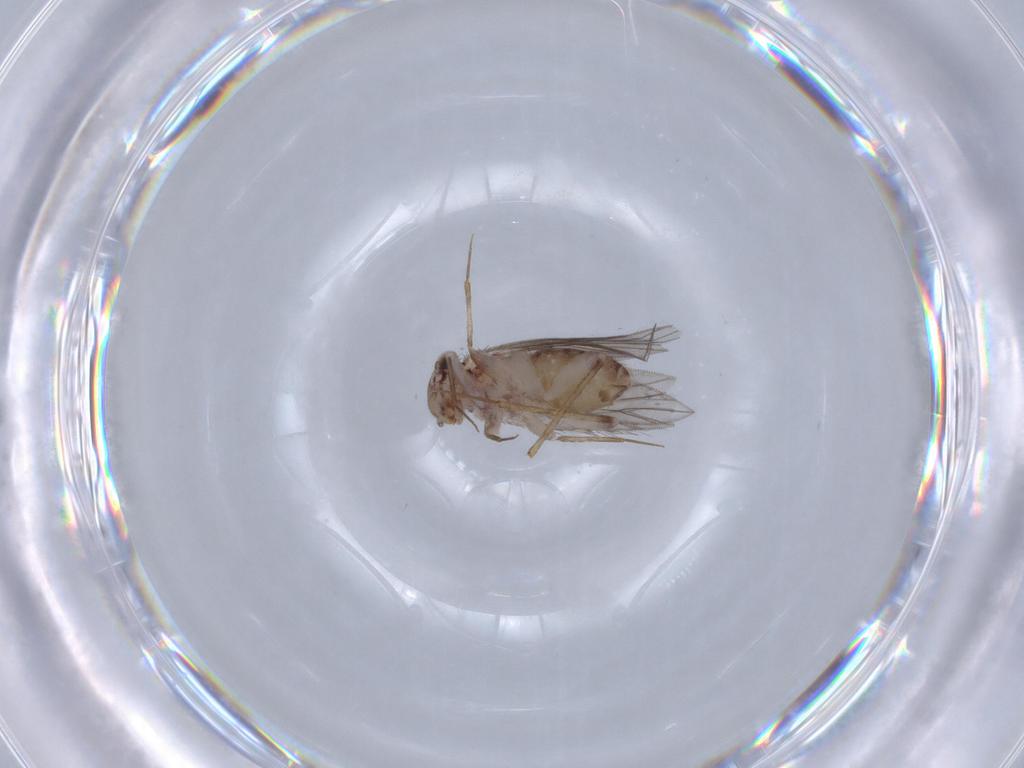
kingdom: Animalia
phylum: Arthropoda
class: Insecta
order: Psocodea
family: Lepidopsocidae
